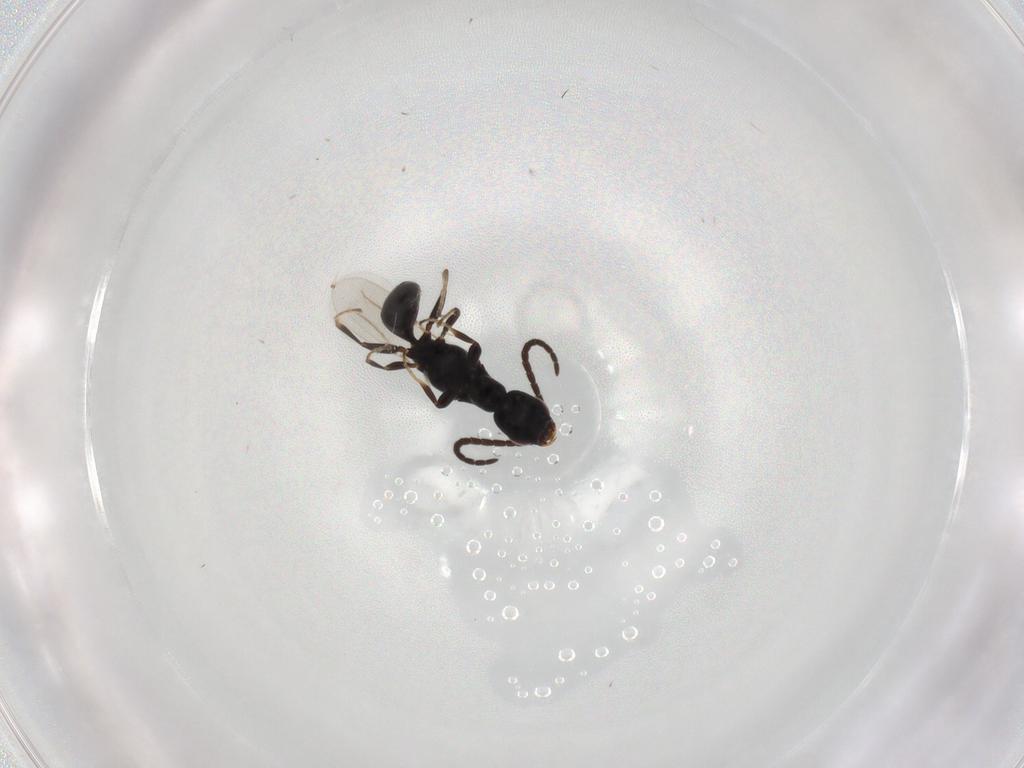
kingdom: Animalia
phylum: Arthropoda
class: Insecta
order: Hymenoptera
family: Bethylidae
